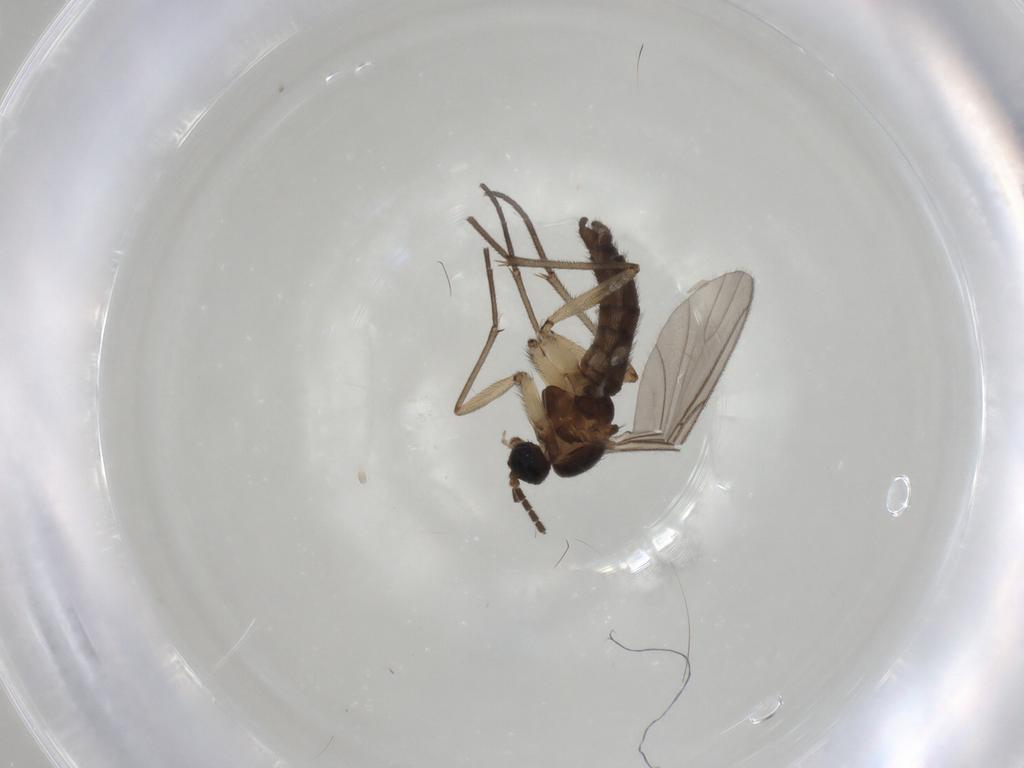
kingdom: Animalia
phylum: Arthropoda
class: Insecta
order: Diptera
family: Sciaridae
